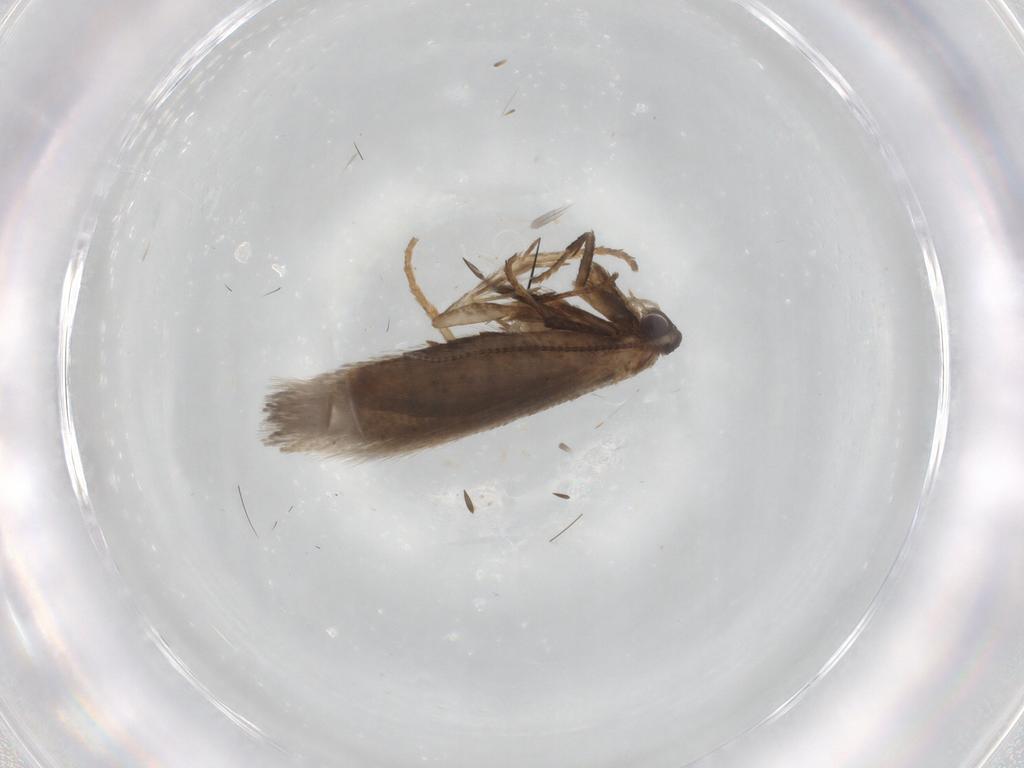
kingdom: Animalia
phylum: Arthropoda
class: Insecta
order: Lepidoptera
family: Nepticulidae
